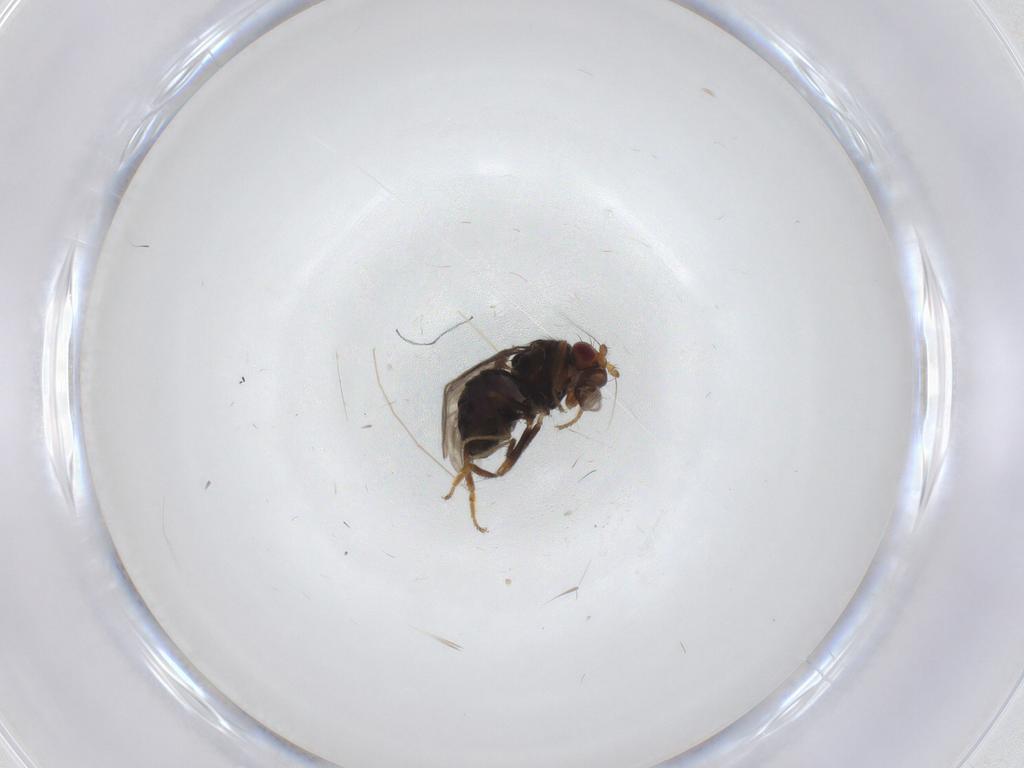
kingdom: Animalia
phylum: Arthropoda
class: Insecta
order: Diptera
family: Sphaeroceridae
